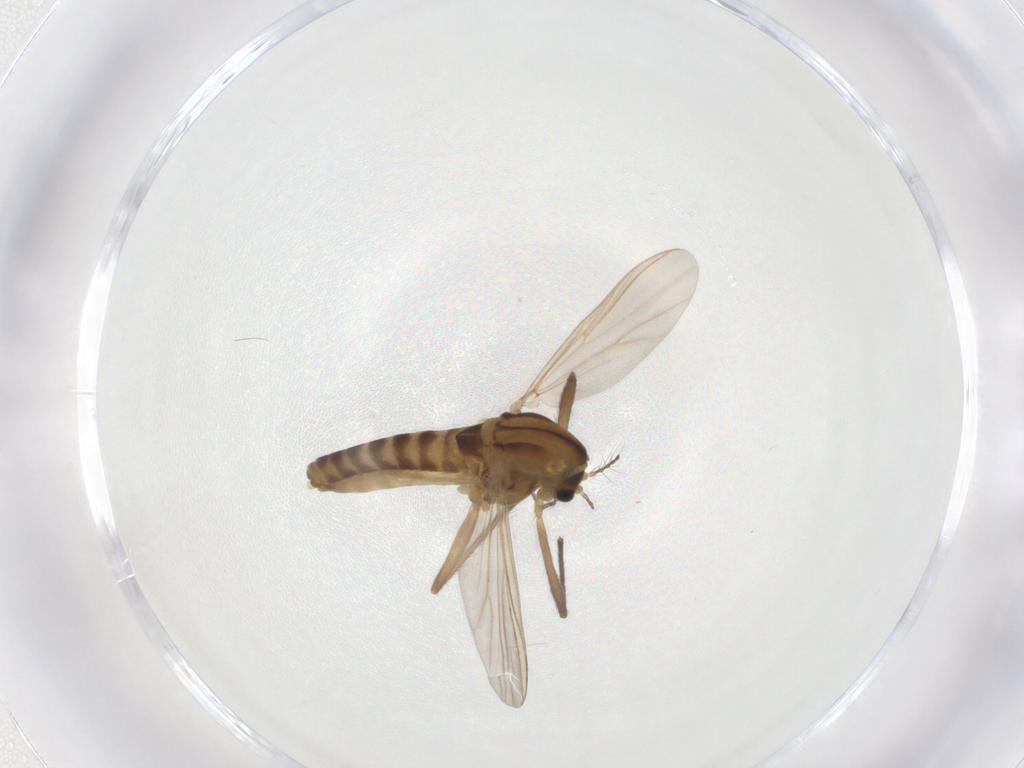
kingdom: Animalia
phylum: Arthropoda
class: Insecta
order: Diptera
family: Chironomidae
